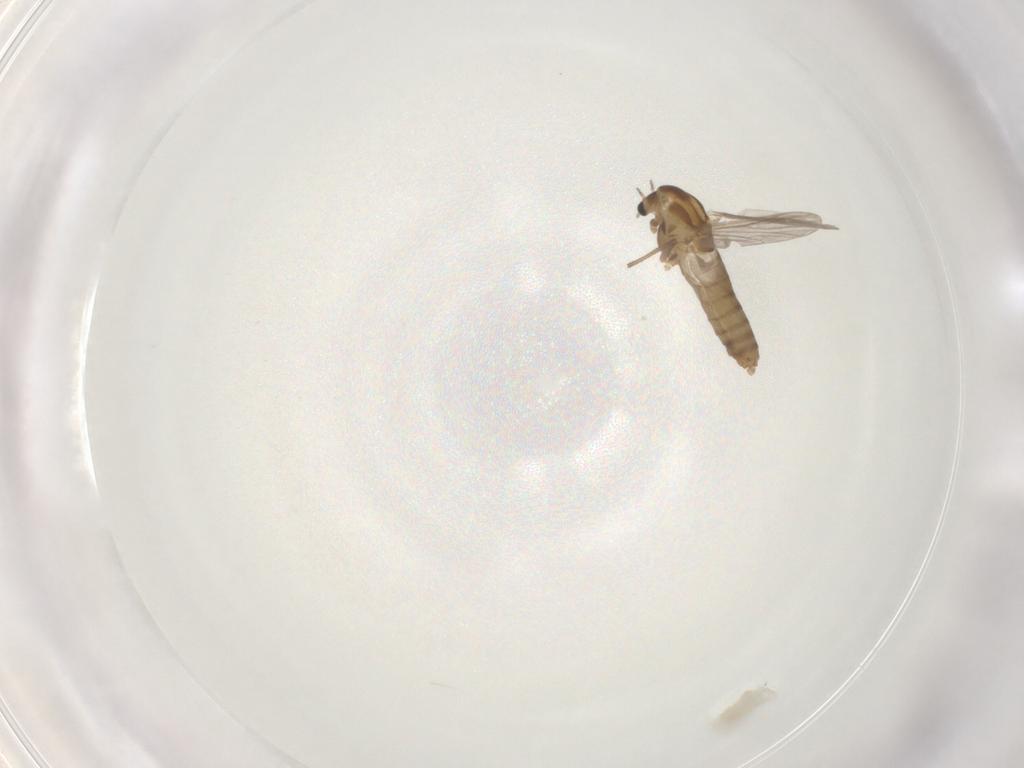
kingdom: Animalia
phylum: Arthropoda
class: Insecta
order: Diptera
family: Chironomidae
